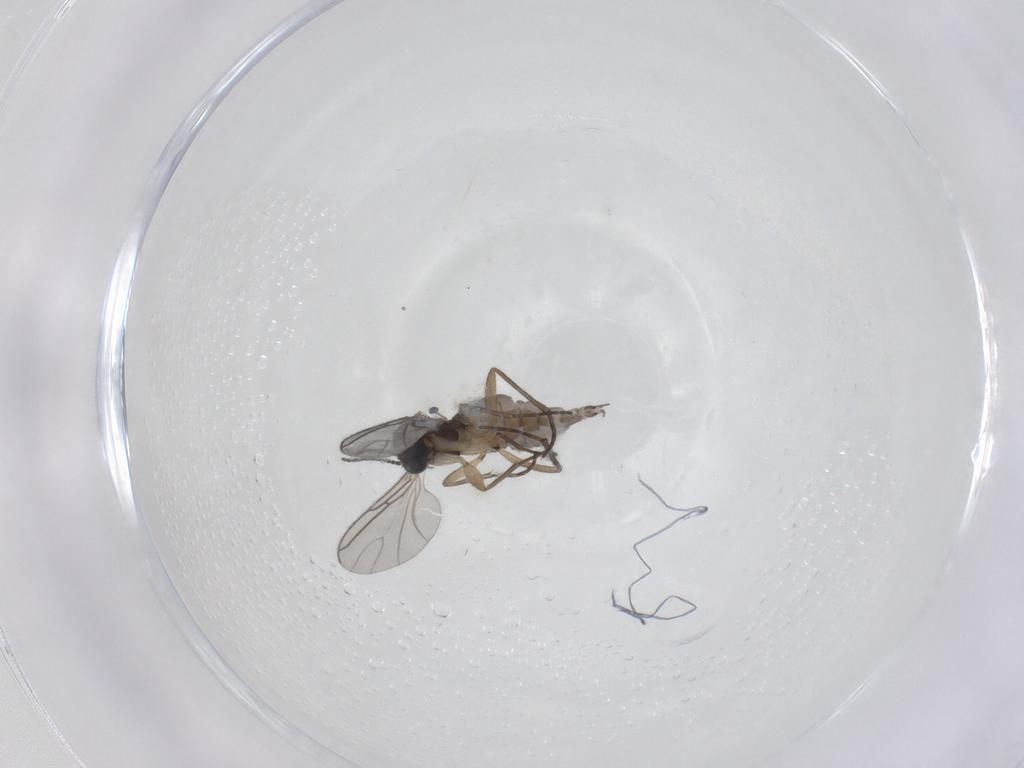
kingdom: Animalia
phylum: Arthropoda
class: Insecta
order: Diptera
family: Sciaridae
